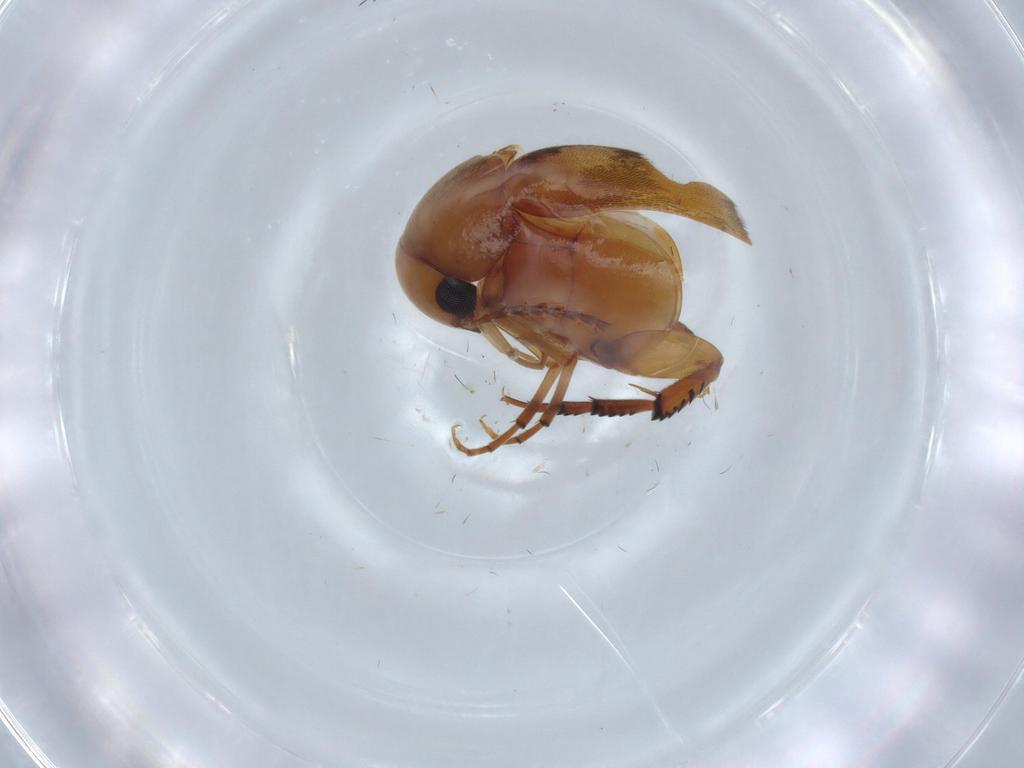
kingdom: Animalia
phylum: Arthropoda
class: Insecta
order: Coleoptera
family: Mordellidae
